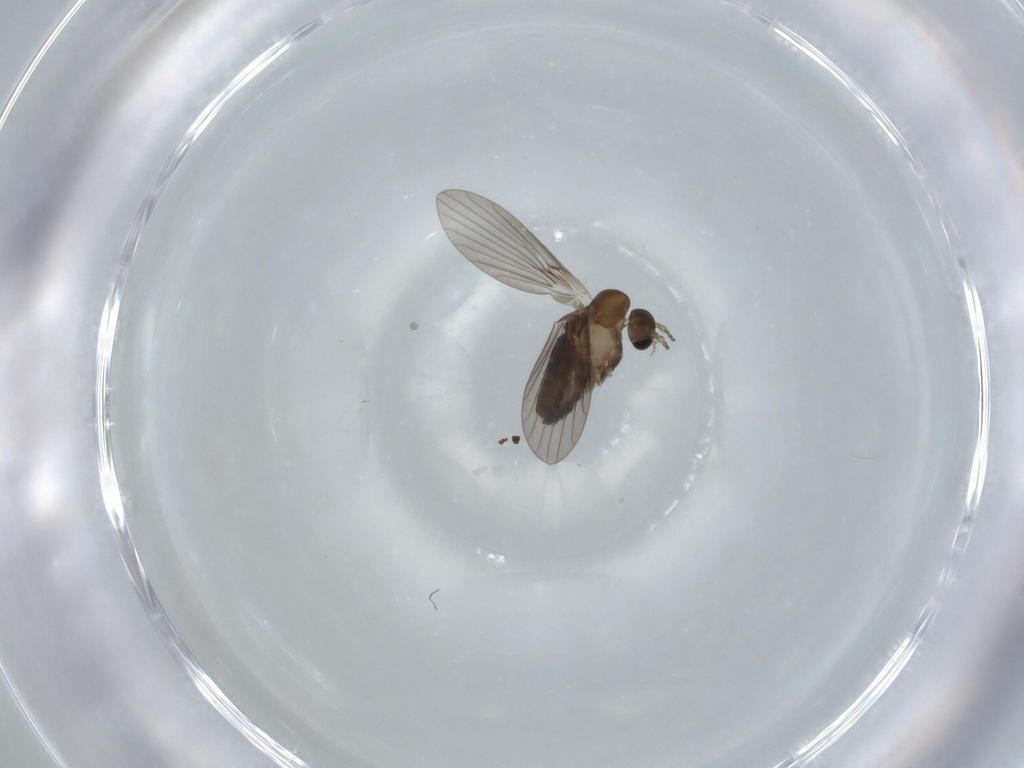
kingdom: Animalia
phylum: Arthropoda
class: Insecta
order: Diptera
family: Psychodidae
